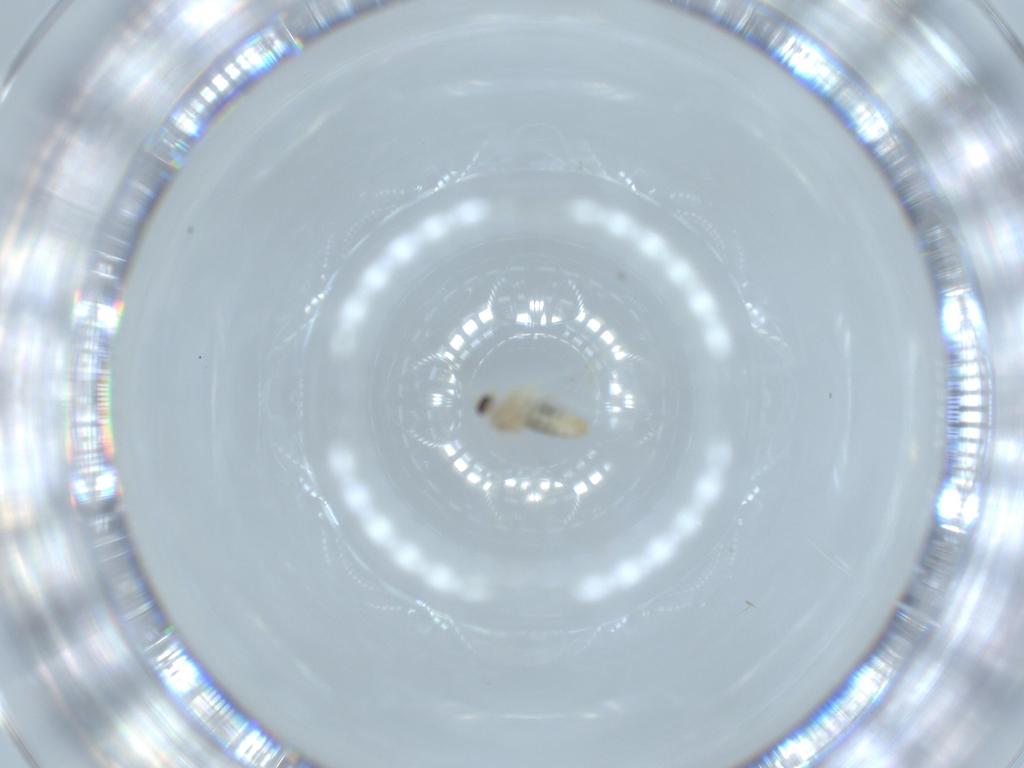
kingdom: Animalia
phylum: Arthropoda
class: Insecta
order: Diptera
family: Cecidomyiidae
